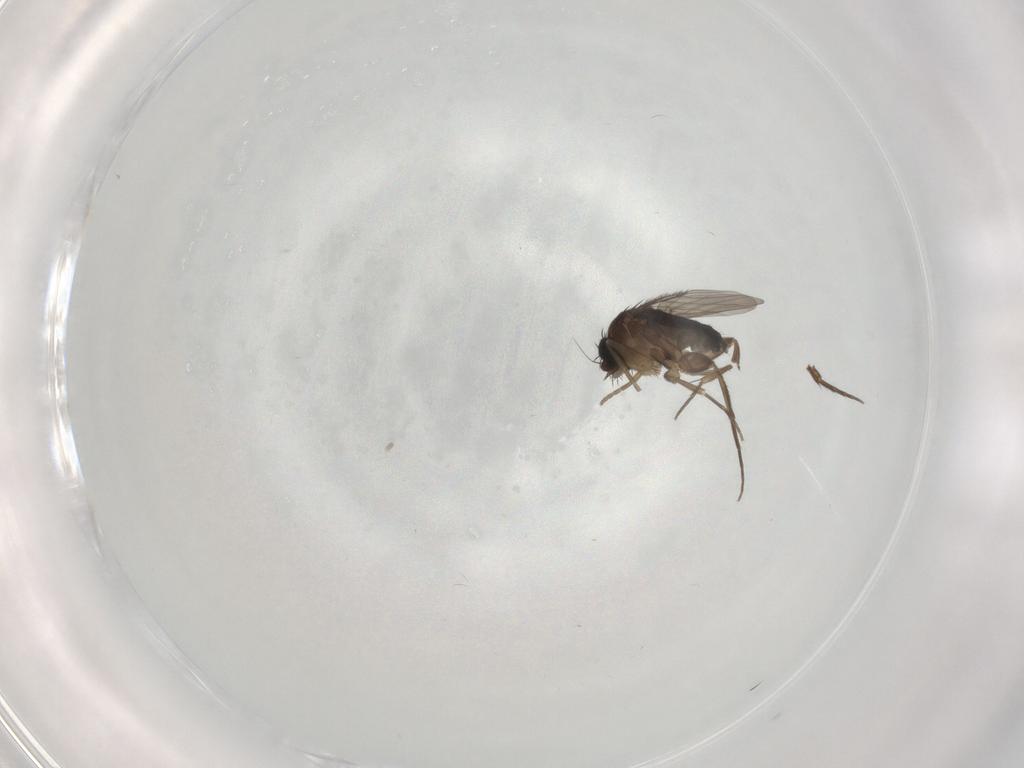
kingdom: Animalia
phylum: Arthropoda
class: Insecta
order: Diptera
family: Phoridae
